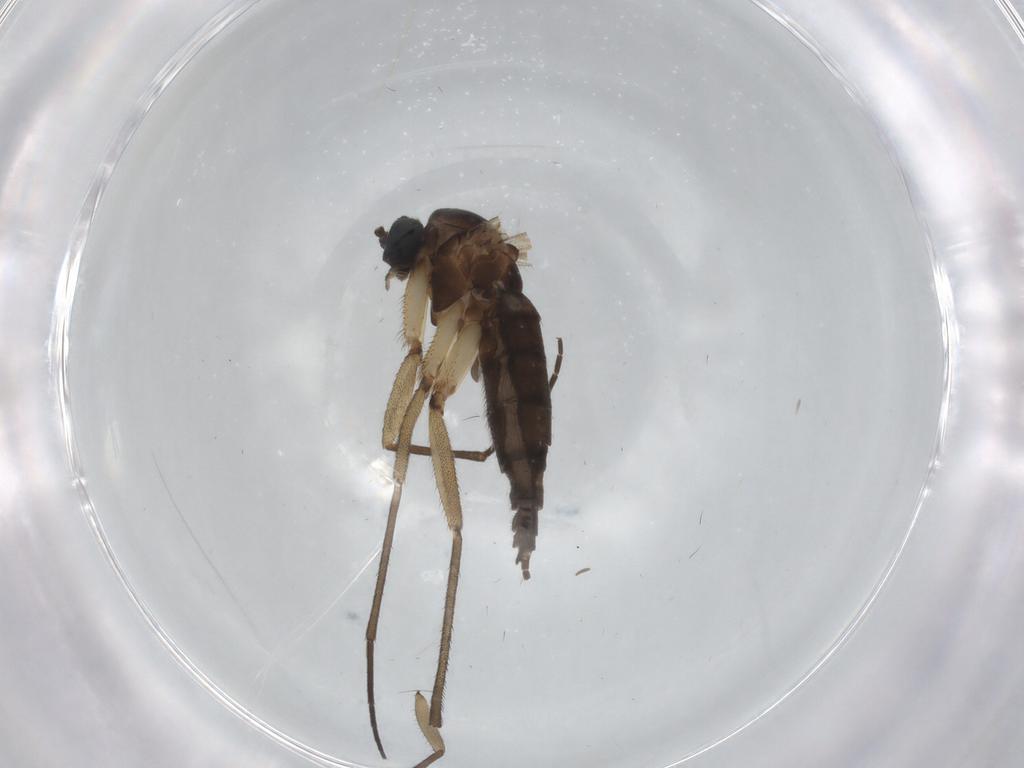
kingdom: Animalia
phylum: Arthropoda
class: Insecta
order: Diptera
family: Sciaridae
